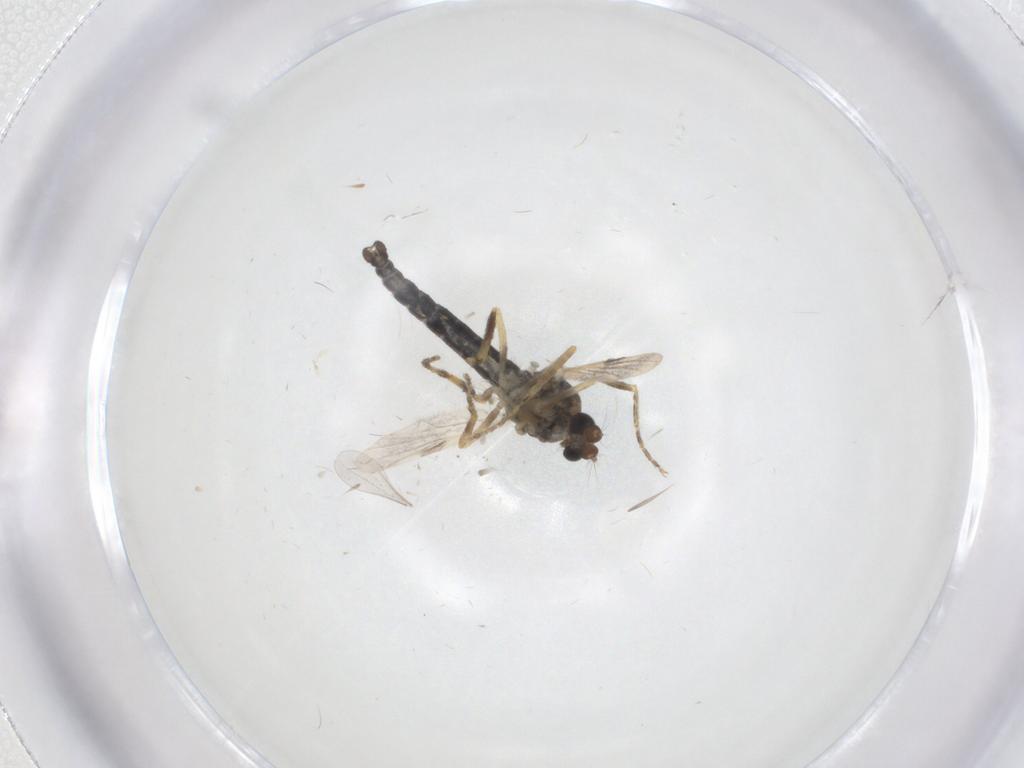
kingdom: Animalia
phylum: Arthropoda
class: Insecta
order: Diptera
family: Ceratopogonidae
